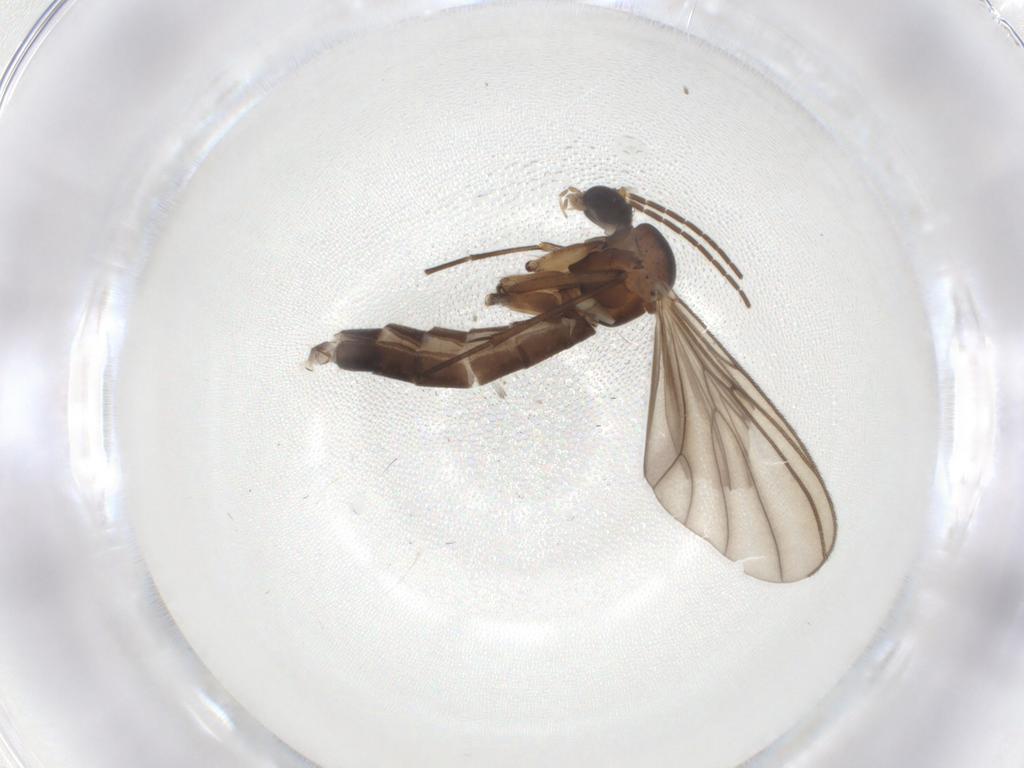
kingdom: Animalia
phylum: Arthropoda
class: Insecta
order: Diptera
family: Mycetophilidae
